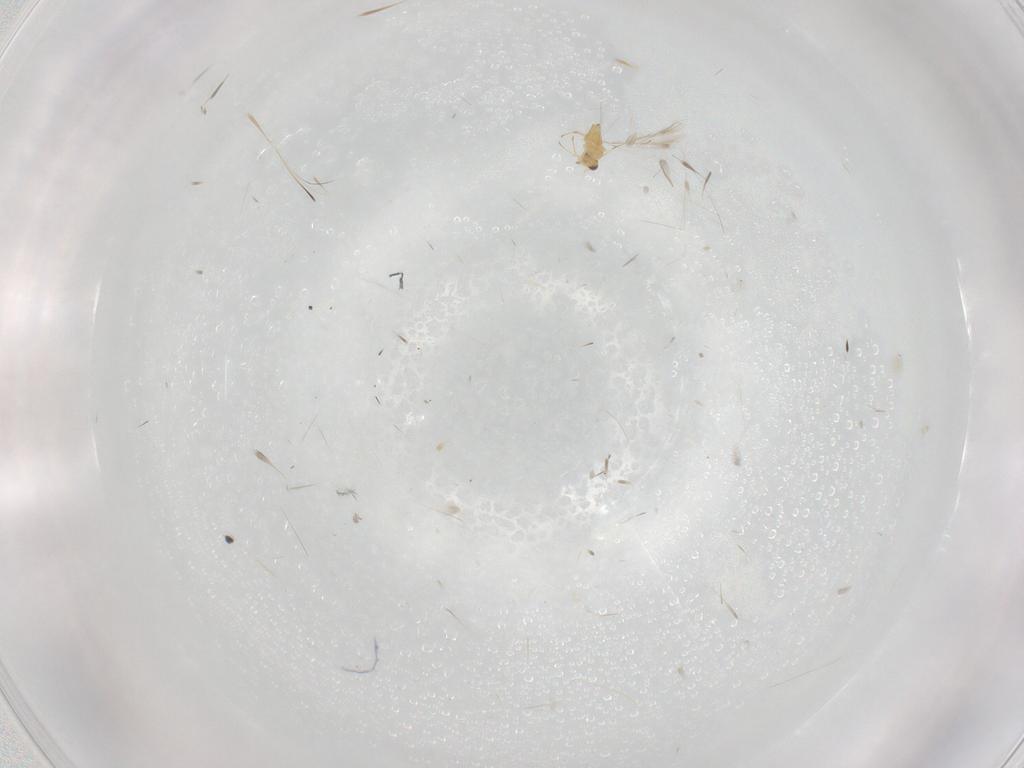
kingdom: Animalia
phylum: Arthropoda
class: Insecta
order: Hymenoptera
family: Mymaridae
